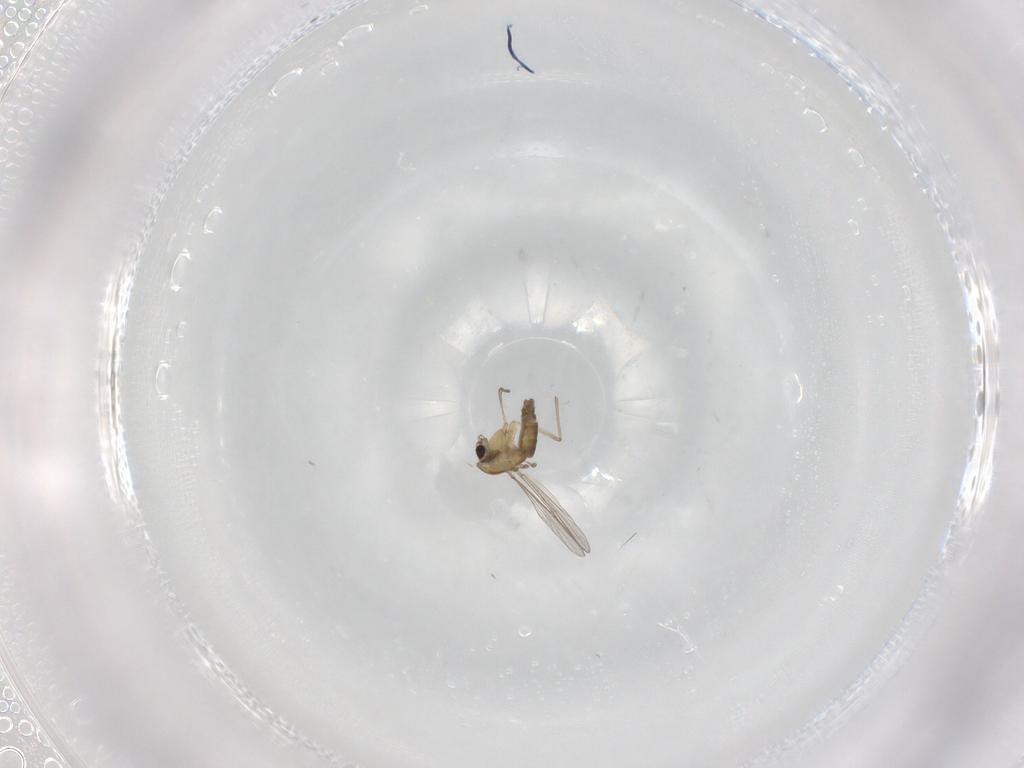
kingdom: Animalia
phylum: Arthropoda
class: Insecta
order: Diptera
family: Chironomidae
